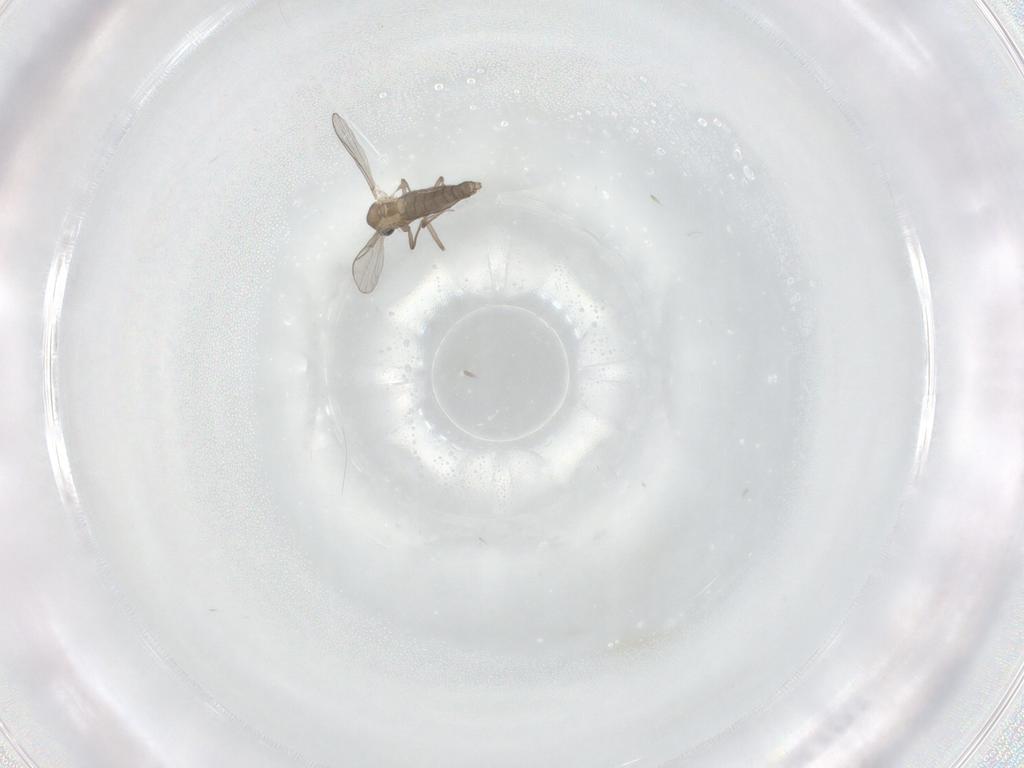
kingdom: Animalia
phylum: Arthropoda
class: Insecta
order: Diptera
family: Chironomidae
